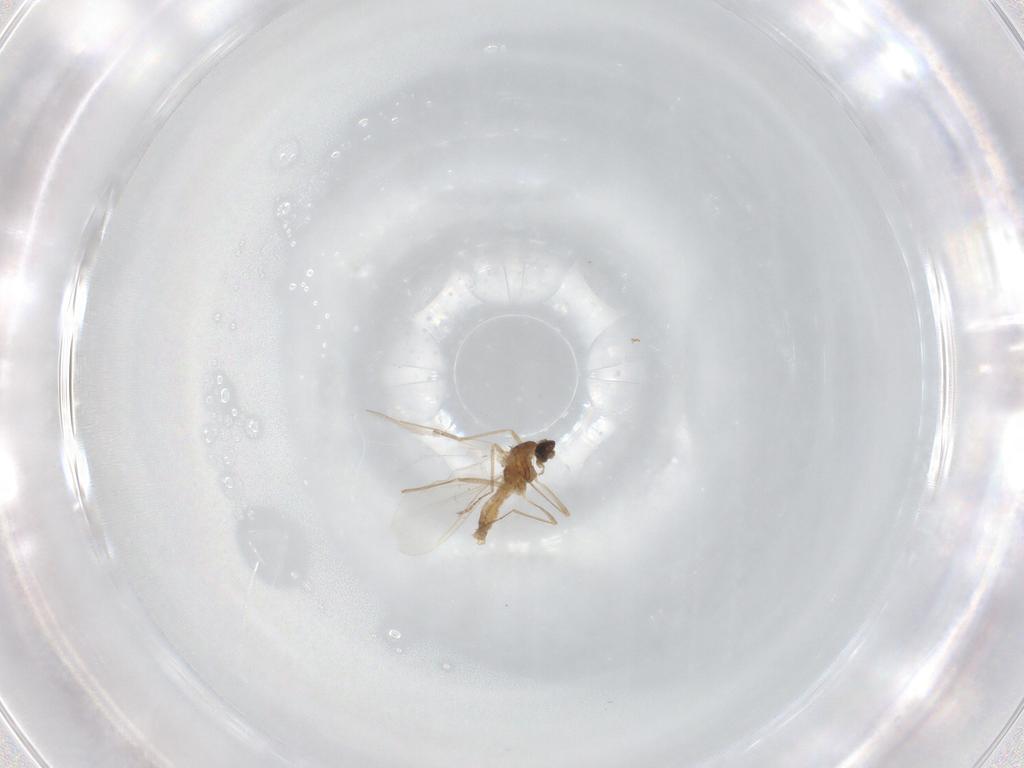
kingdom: Animalia
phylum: Arthropoda
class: Insecta
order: Diptera
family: Cecidomyiidae
